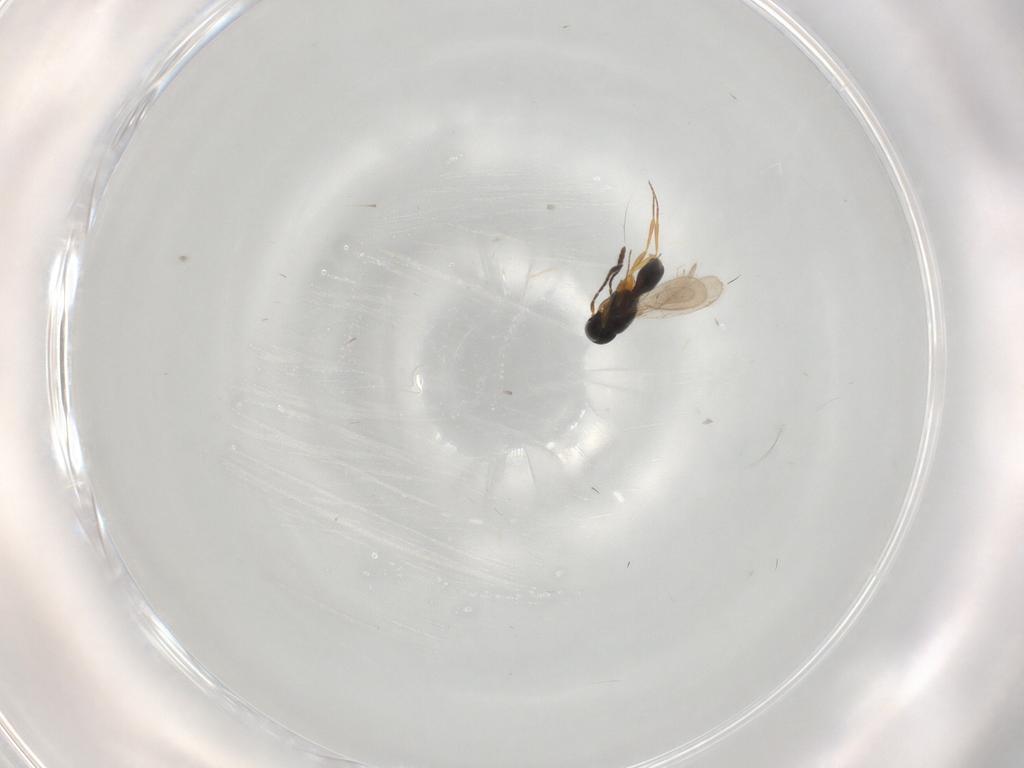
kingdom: Animalia
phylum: Arthropoda
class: Insecta
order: Hymenoptera
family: Scelionidae
